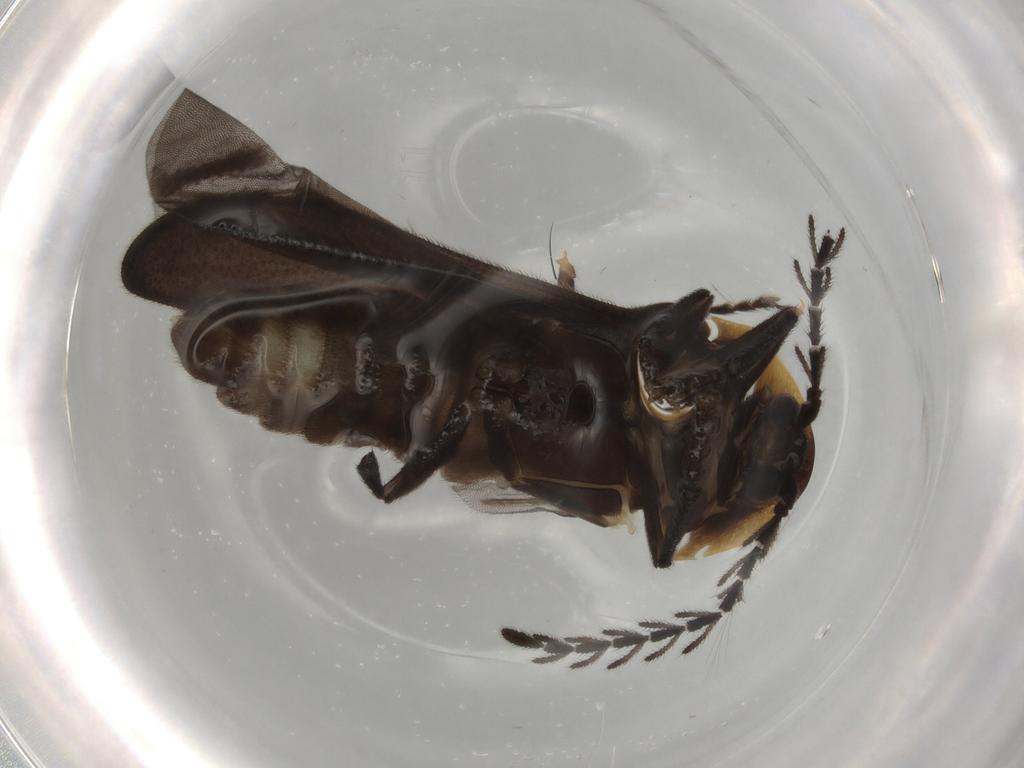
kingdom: Animalia
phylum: Arthropoda
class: Insecta
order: Coleoptera
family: Lampyridae
